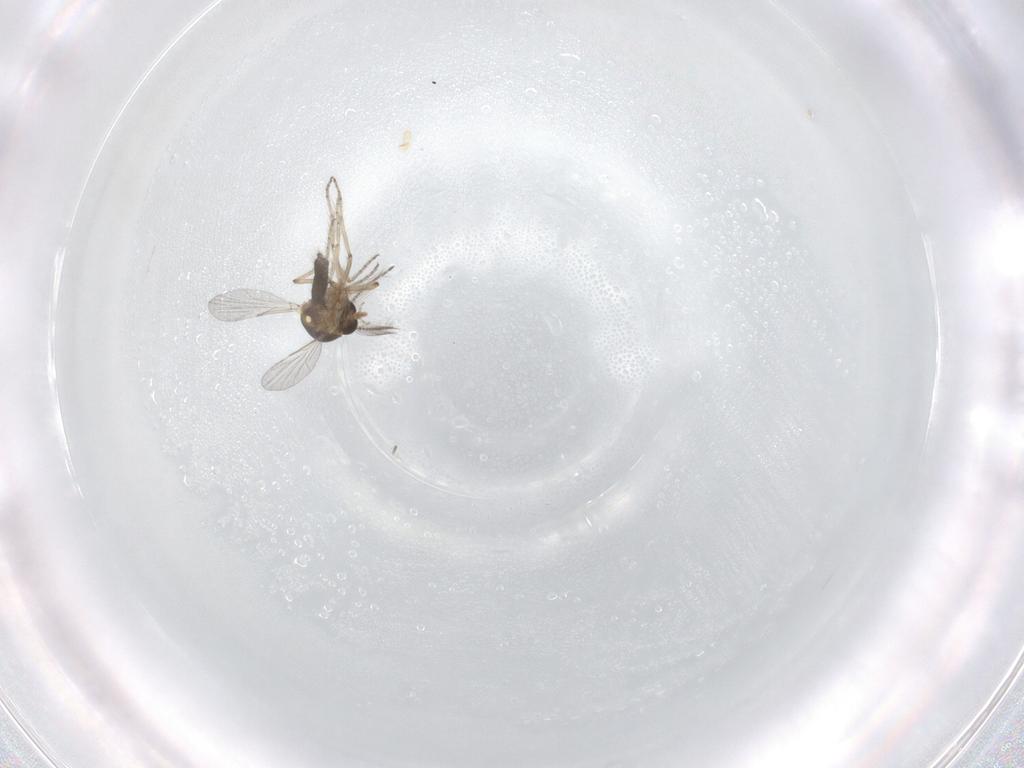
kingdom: Animalia
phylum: Arthropoda
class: Insecta
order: Diptera
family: Ceratopogonidae
